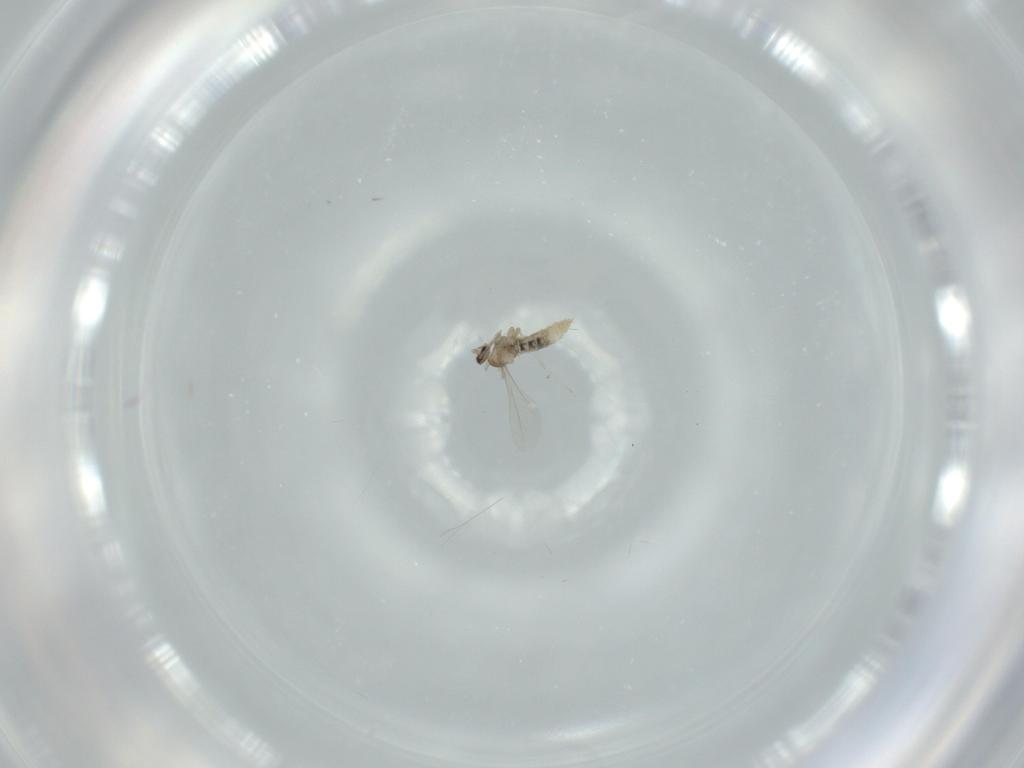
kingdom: Animalia
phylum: Arthropoda
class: Insecta
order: Diptera
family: Cecidomyiidae
